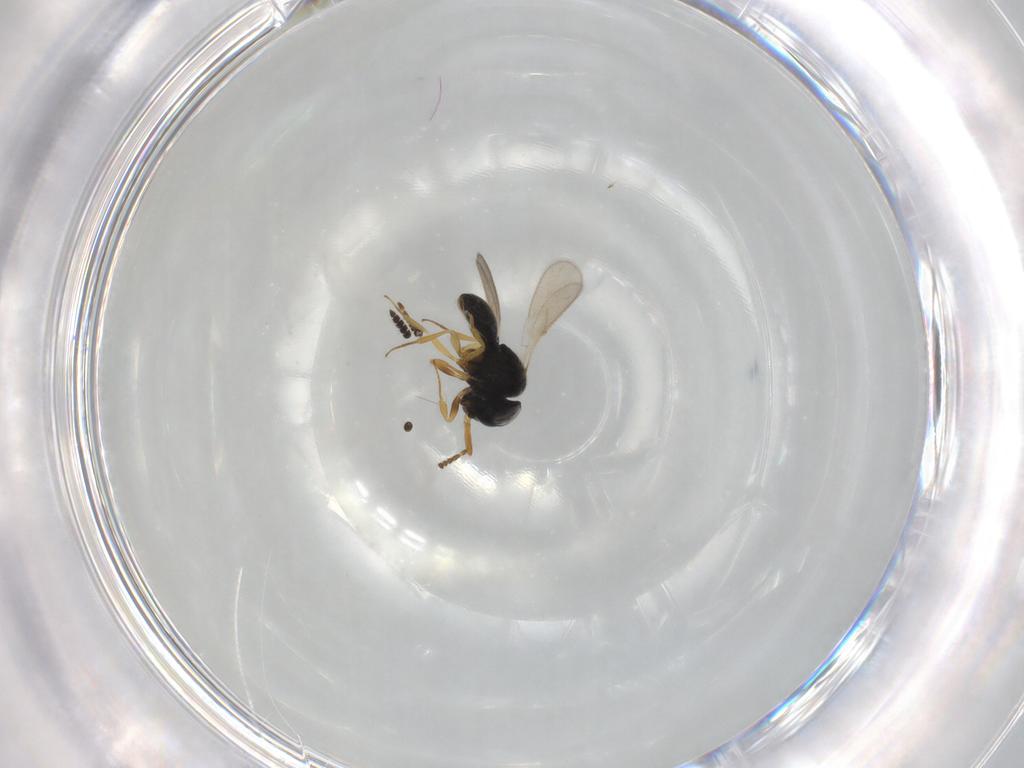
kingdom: Animalia
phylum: Arthropoda
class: Insecta
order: Hymenoptera
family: Scelionidae
